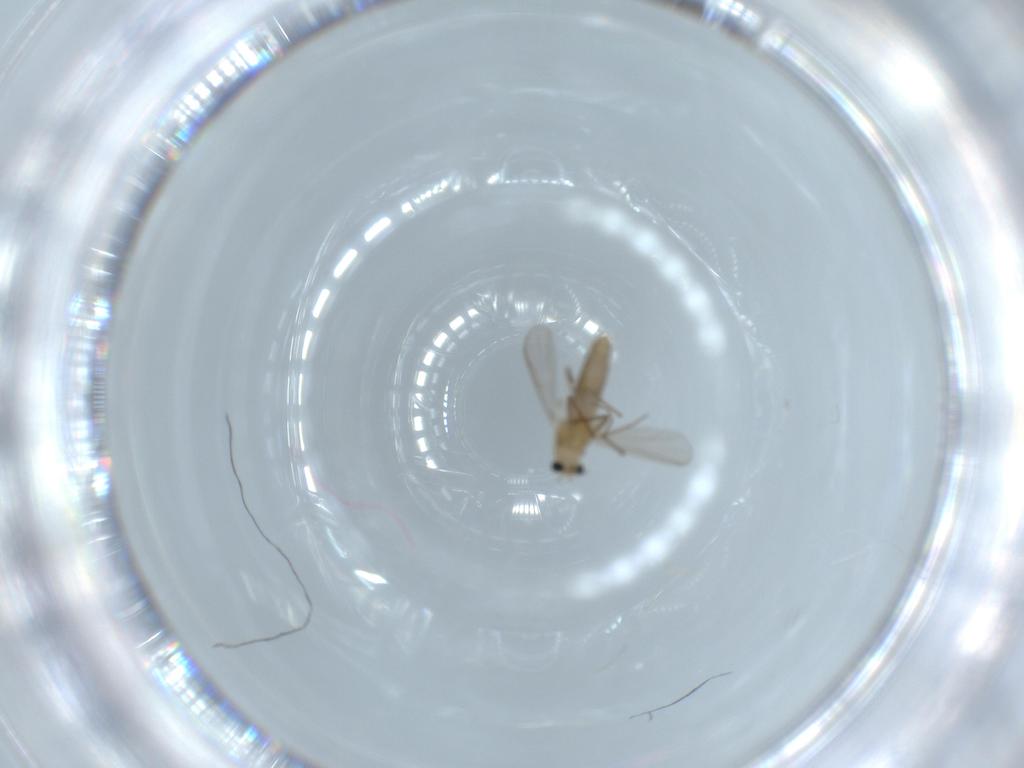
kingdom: Animalia
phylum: Arthropoda
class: Insecta
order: Diptera
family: Chironomidae
